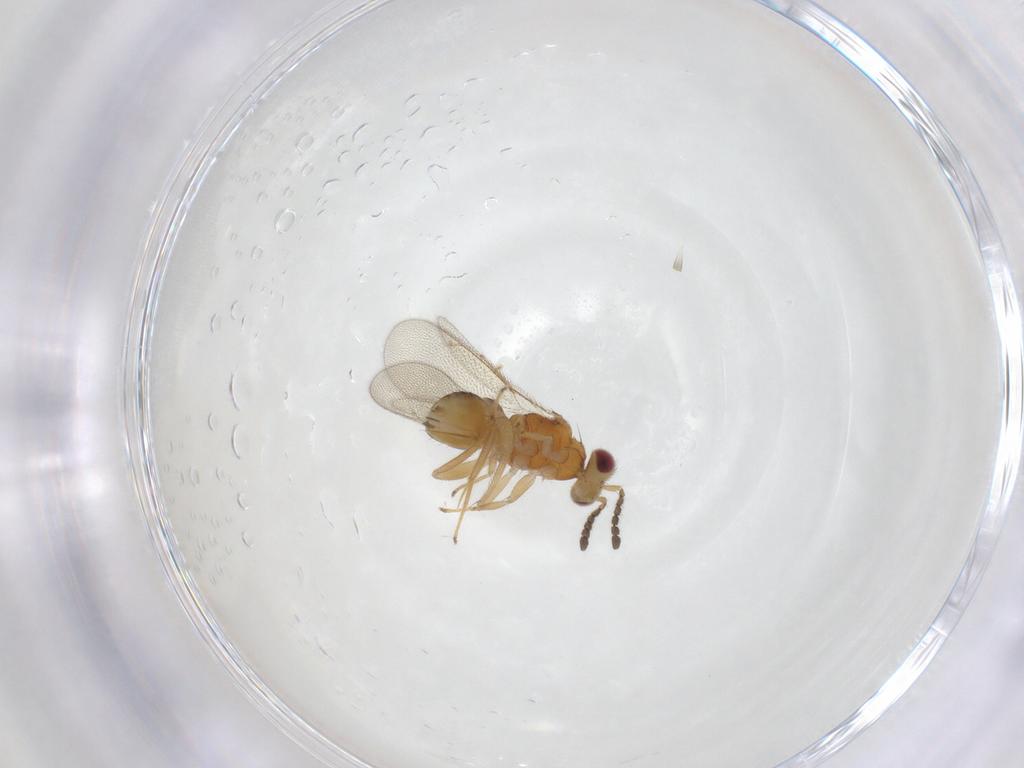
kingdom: Animalia
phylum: Arthropoda
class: Insecta
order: Hymenoptera
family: Eulophidae
